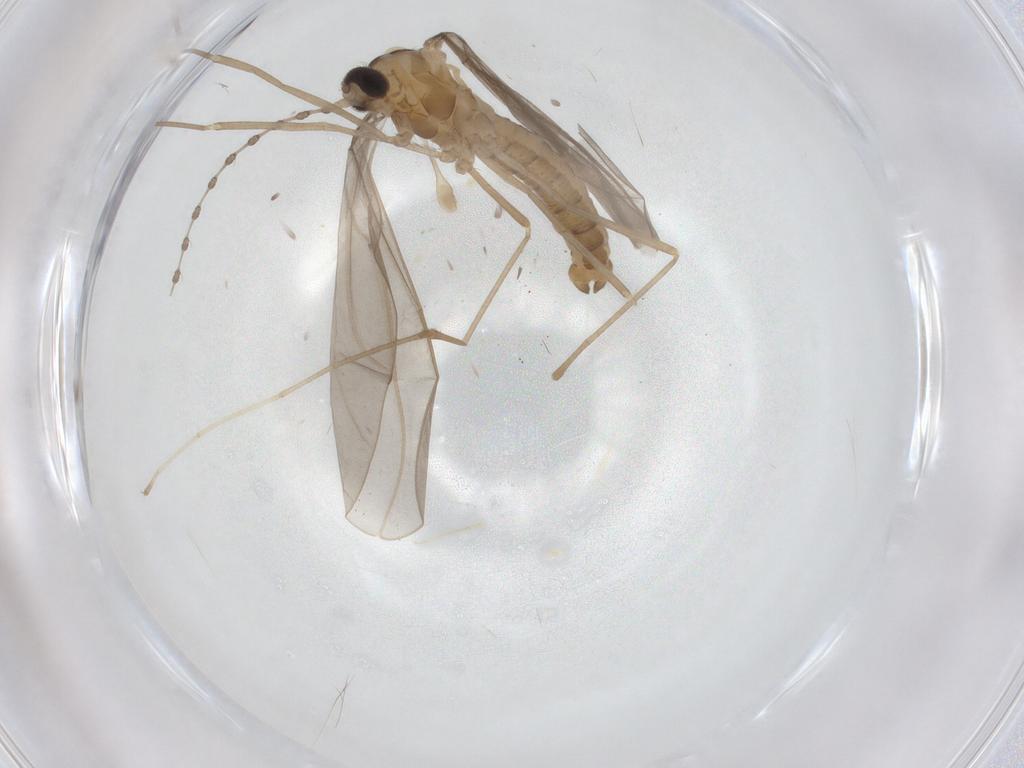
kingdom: Animalia
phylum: Arthropoda
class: Insecta
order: Diptera
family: Cecidomyiidae
